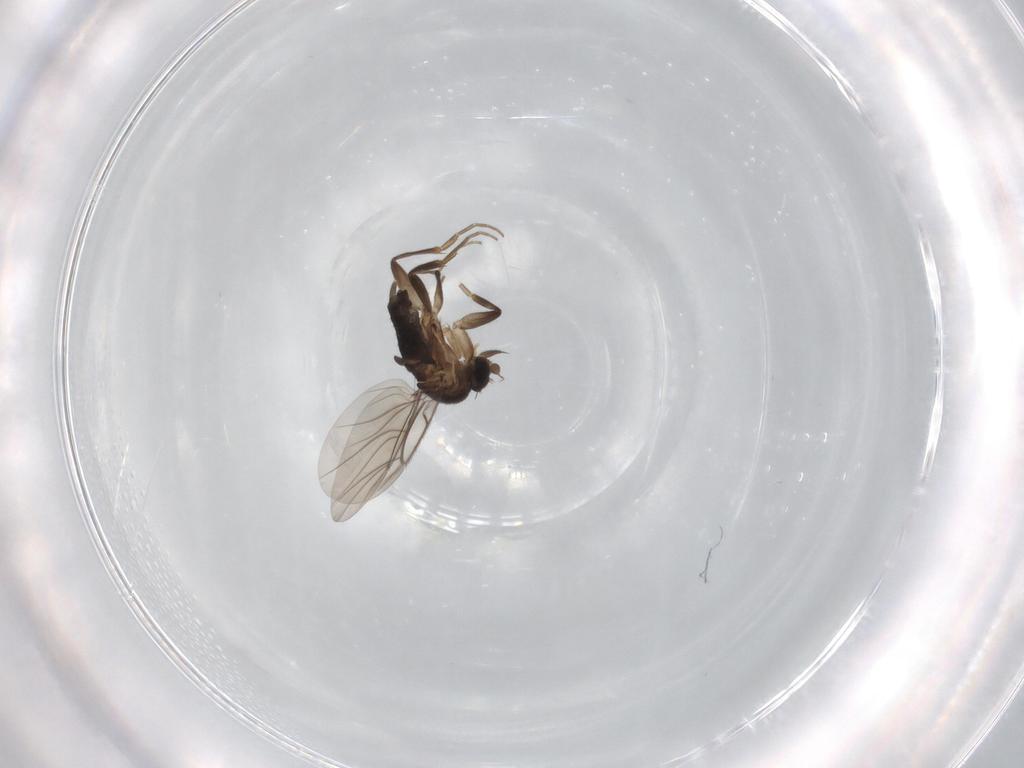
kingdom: Animalia
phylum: Arthropoda
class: Insecta
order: Diptera
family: Phoridae
